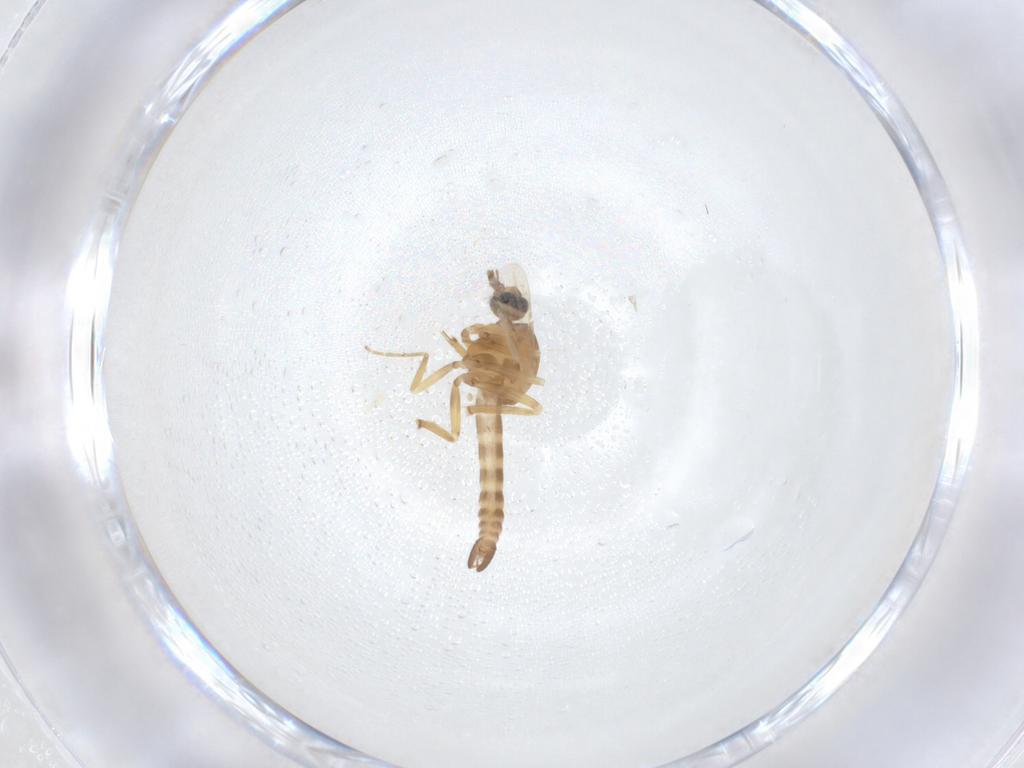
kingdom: Animalia
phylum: Arthropoda
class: Insecta
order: Diptera
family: Ceratopogonidae
